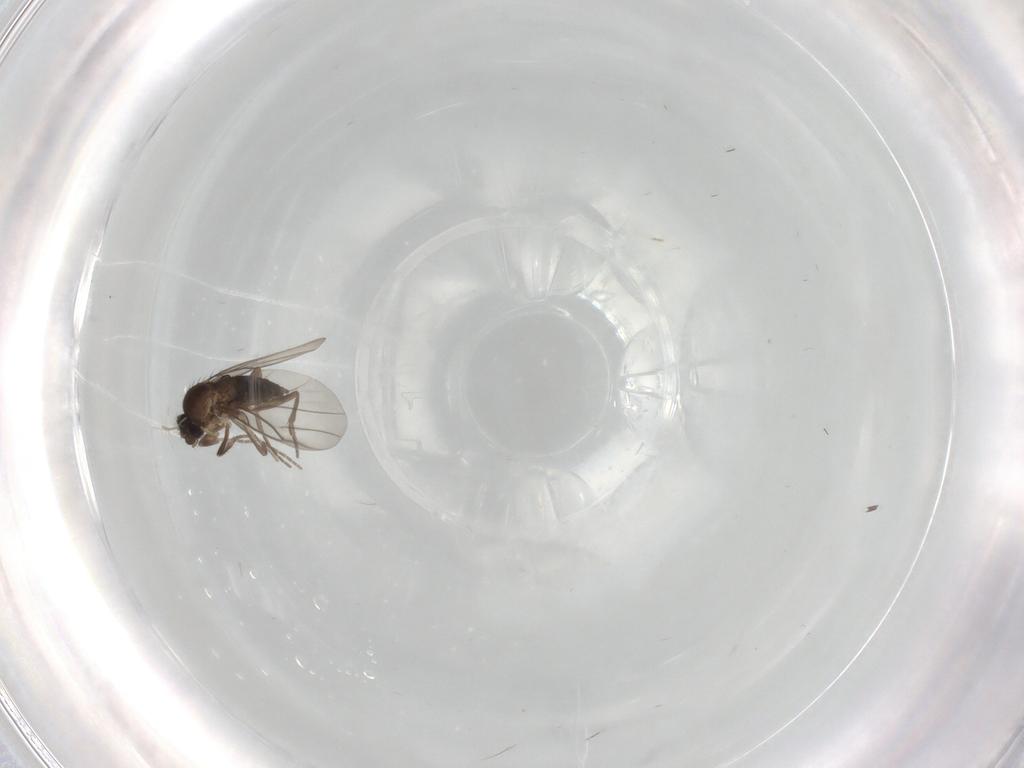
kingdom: Animalia
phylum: Arthropoda
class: Insecta
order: Diptera
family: Phoridae
